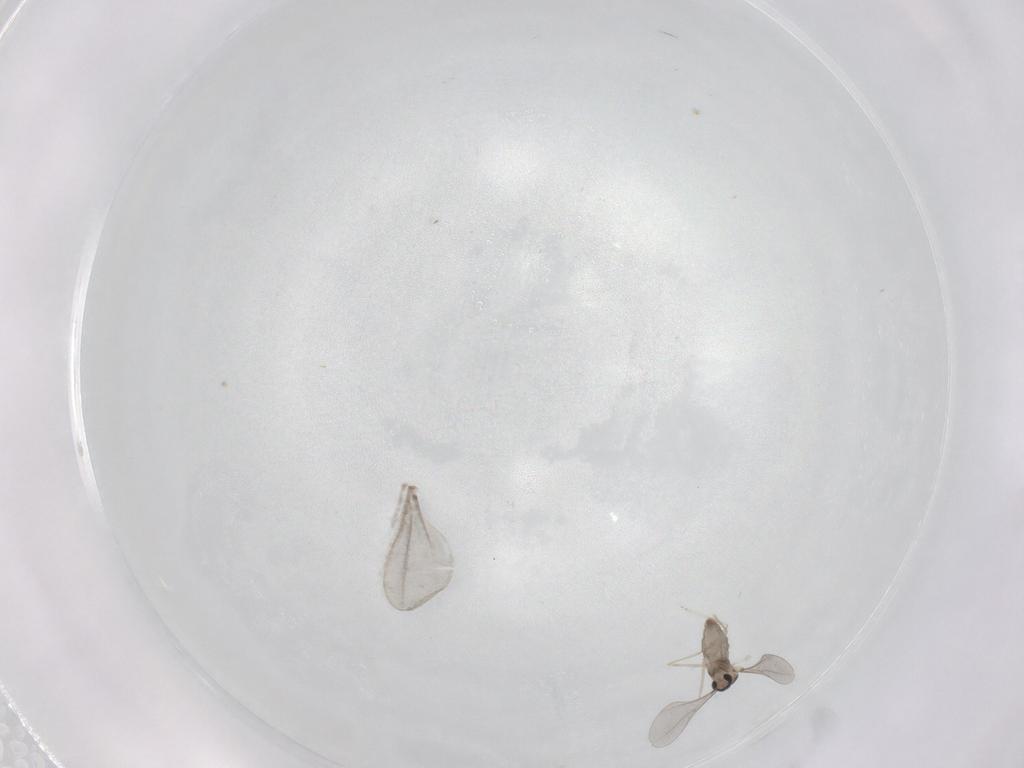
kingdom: Animalia
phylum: Arthropoda
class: Insecta
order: Diptera
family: Cecidomyiidae
